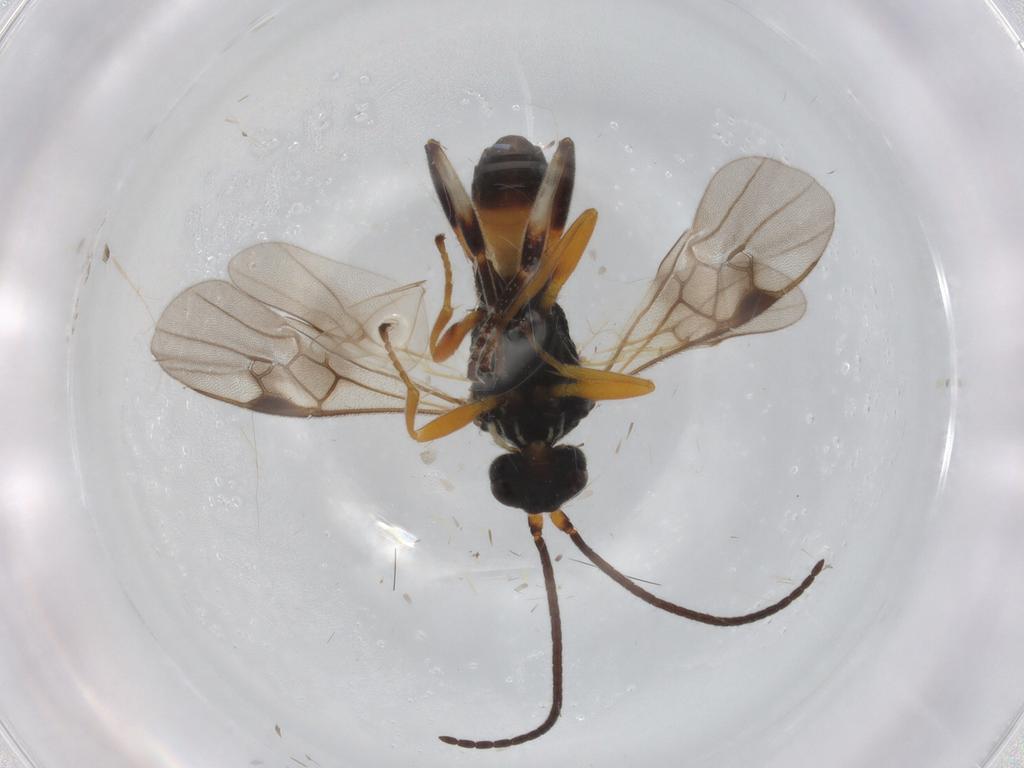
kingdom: Animalia
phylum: Arthropoda
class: Insecta
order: Hymenoptera
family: Braconidae
